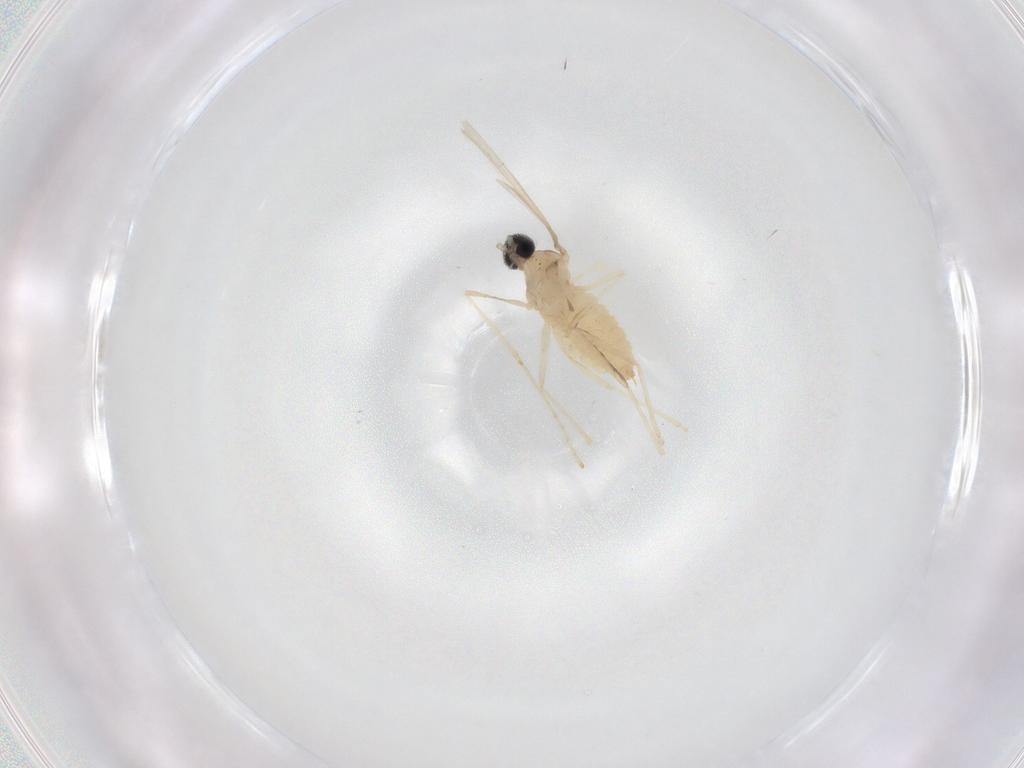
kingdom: Animalia
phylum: Arthropoda
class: Insecta
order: Diptera
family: Cecidomyiidae
